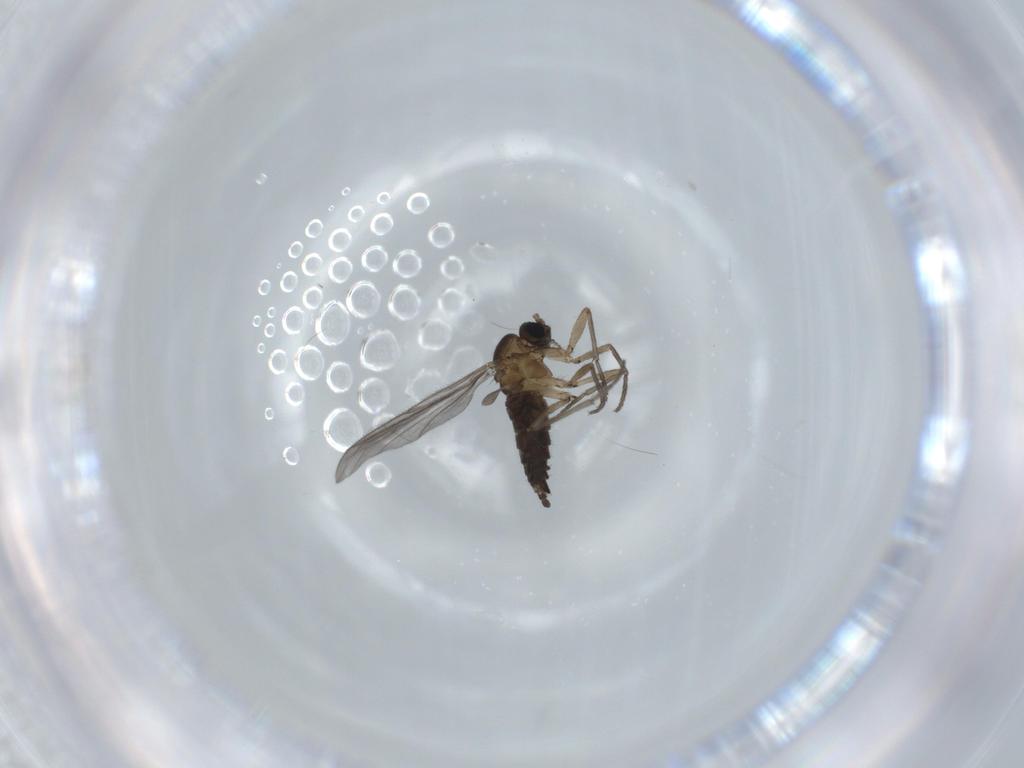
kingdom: Animalia
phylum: Arthropoda
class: Insecta
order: Diptera
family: Sciaridae
